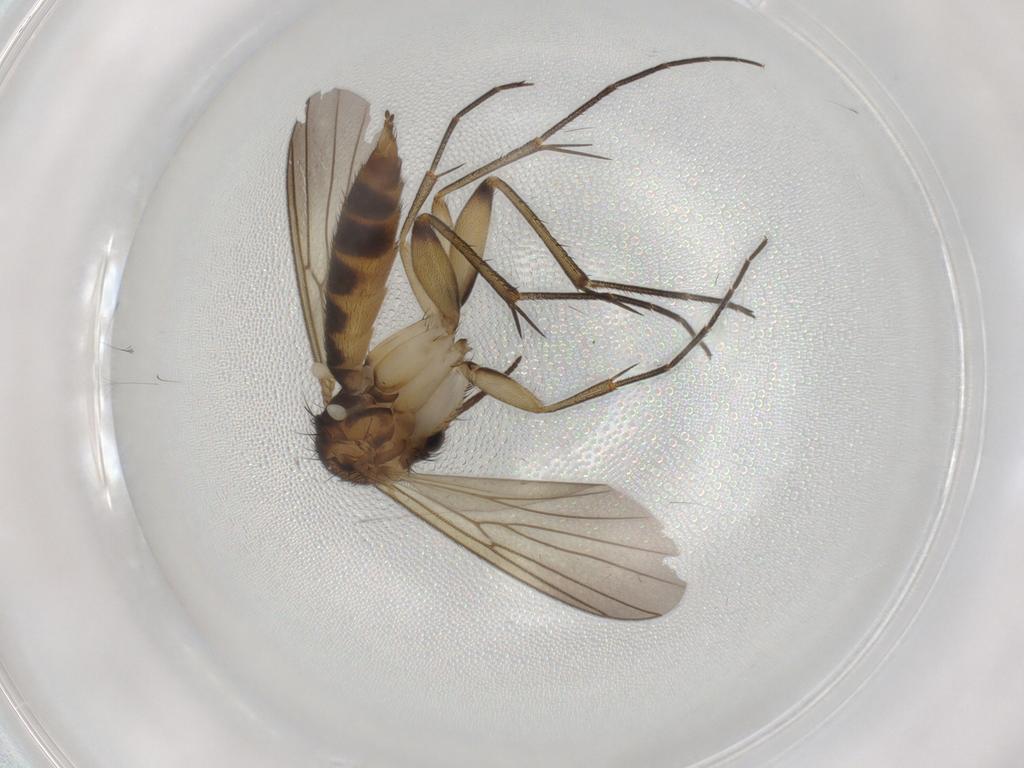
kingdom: Animalia
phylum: Arthropoda
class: Insecta
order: Diptera
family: Mycetophilidae
